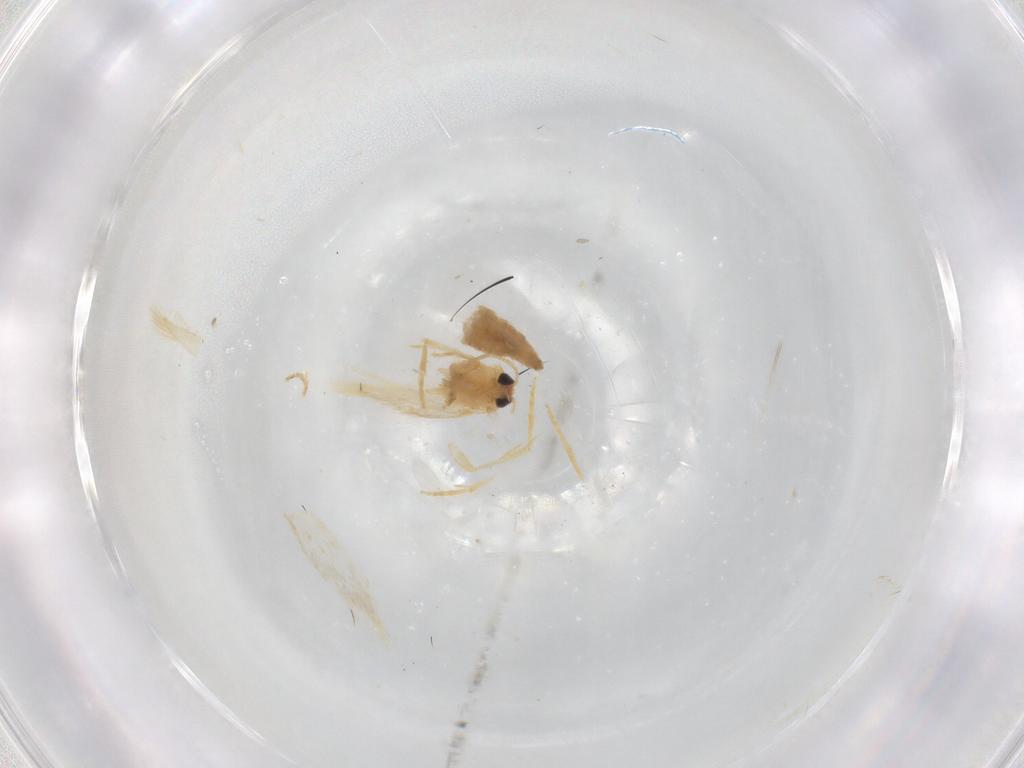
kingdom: Animalia
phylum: Arthropoda
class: Insecta
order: Lepidoptera
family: Nepticulidae
